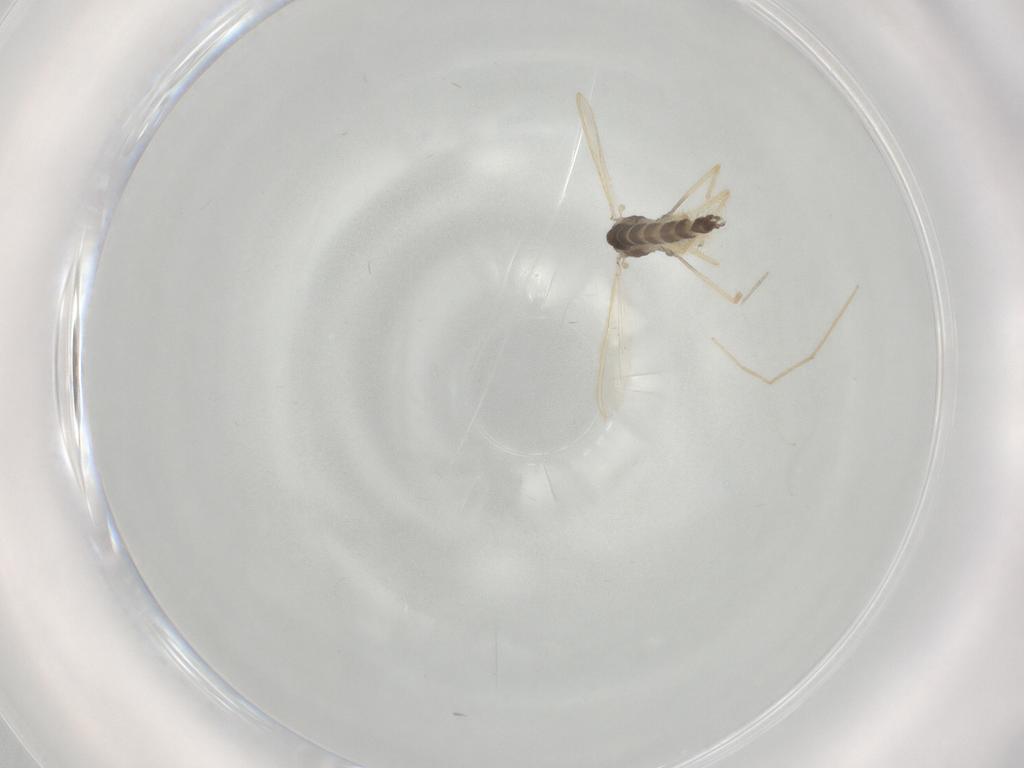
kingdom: Animalia
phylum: Arthropoda
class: Insecta
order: Diptera
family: Chironomidae
